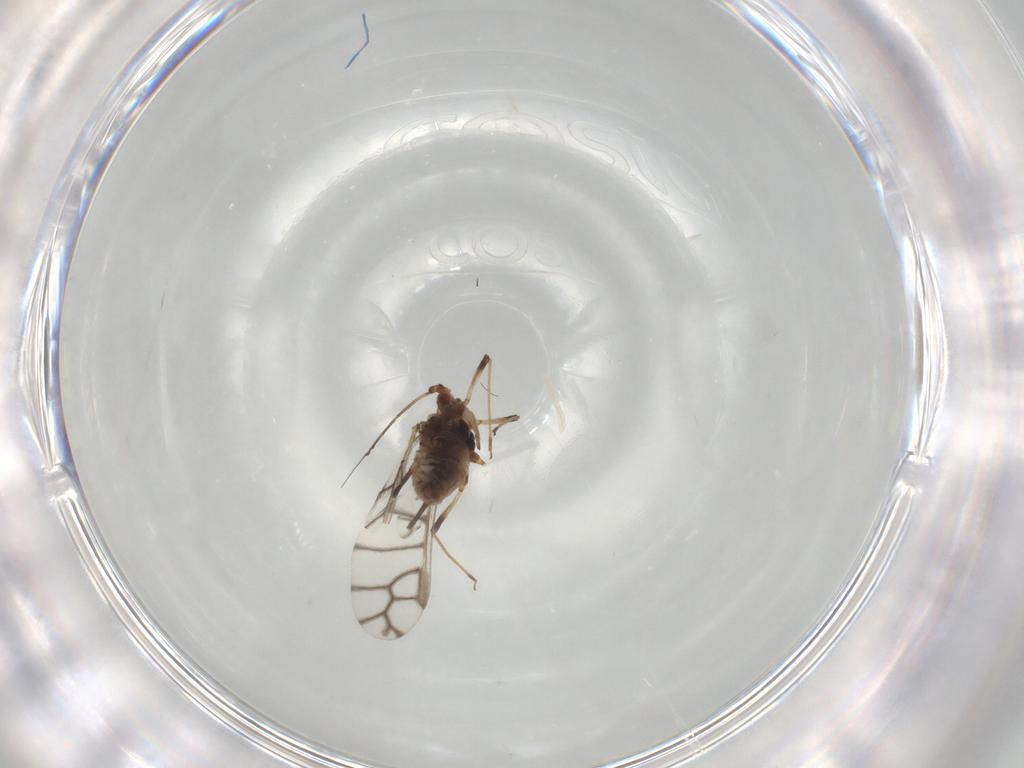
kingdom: Animalia
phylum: Arthropoda
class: Insecta
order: Hemiptera
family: Aphididae
